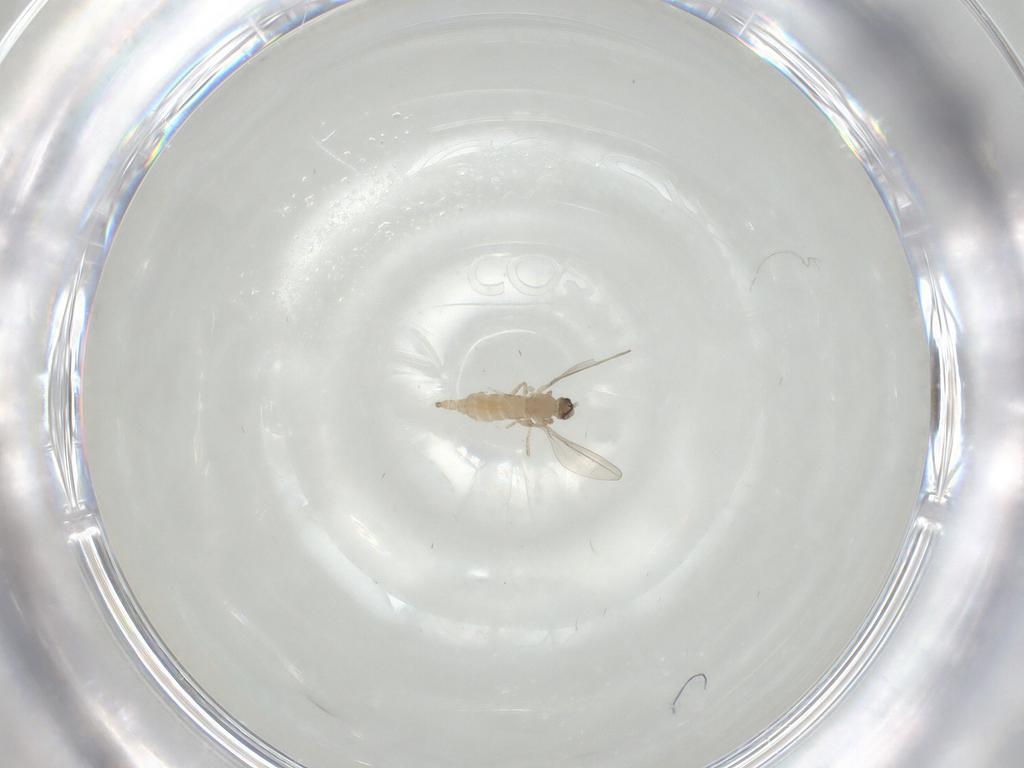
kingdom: Animalia
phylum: Arthropoda
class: Insecta
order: Diptera
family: Cecidomyiidae
